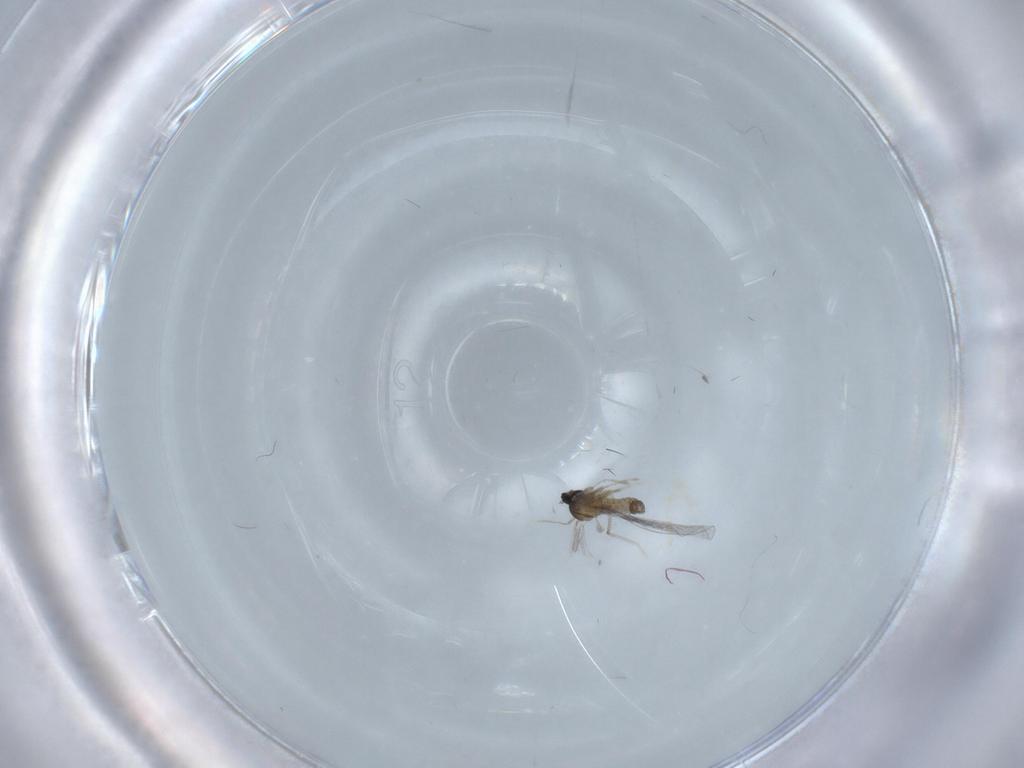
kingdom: Animalia
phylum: Arthropoda
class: Insecta
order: Diptera
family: Cecidomyiidae
